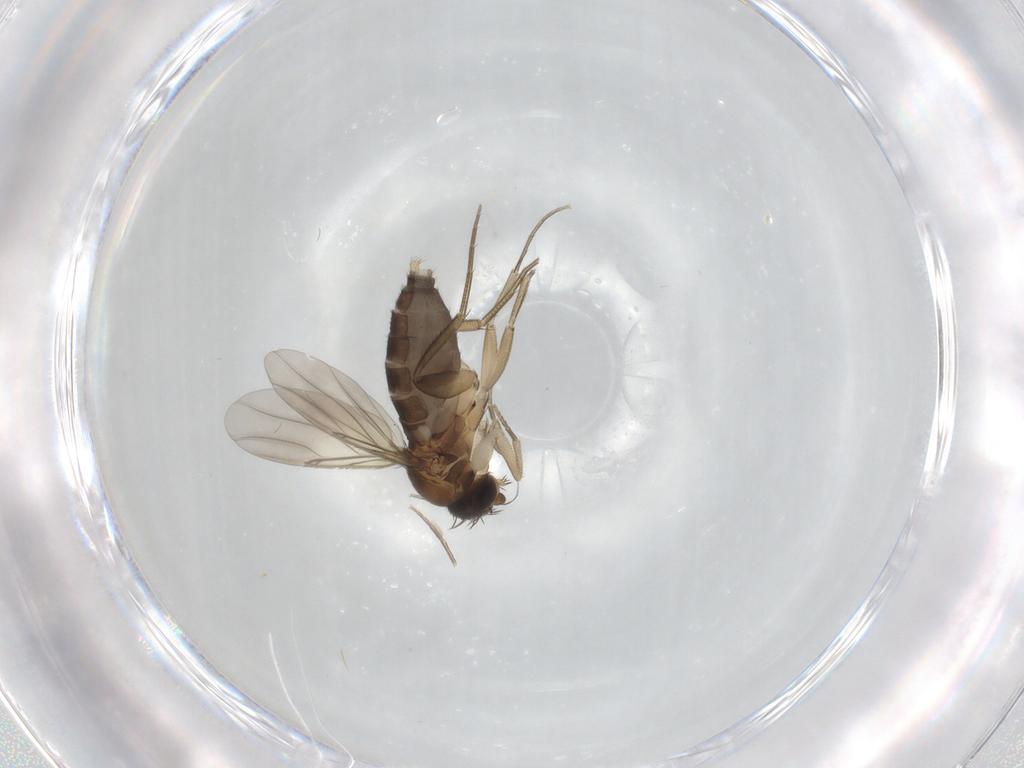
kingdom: Animalia
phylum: Arthropoda
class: Insecta
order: Diptera
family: Phoridae
